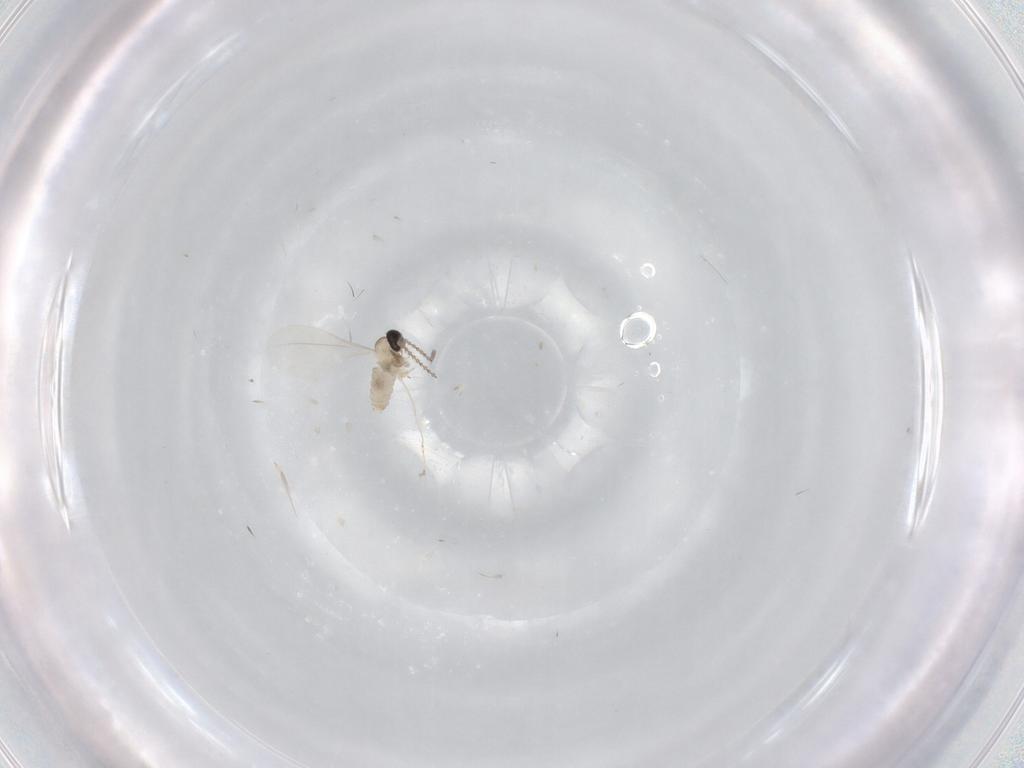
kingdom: Animalia
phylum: Arthropoda
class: Insecta
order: Diptera
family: Cecidomyiidae
